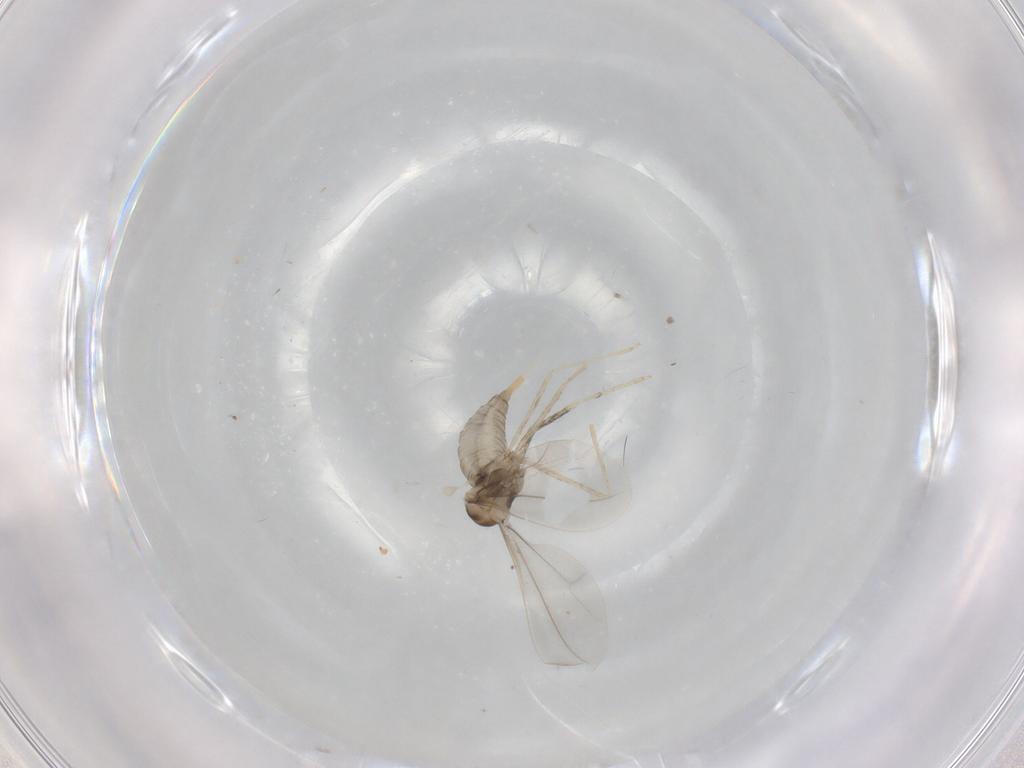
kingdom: Animalia
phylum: Arthropoda
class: Insecta
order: Diptera
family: Cecidomyiidae
